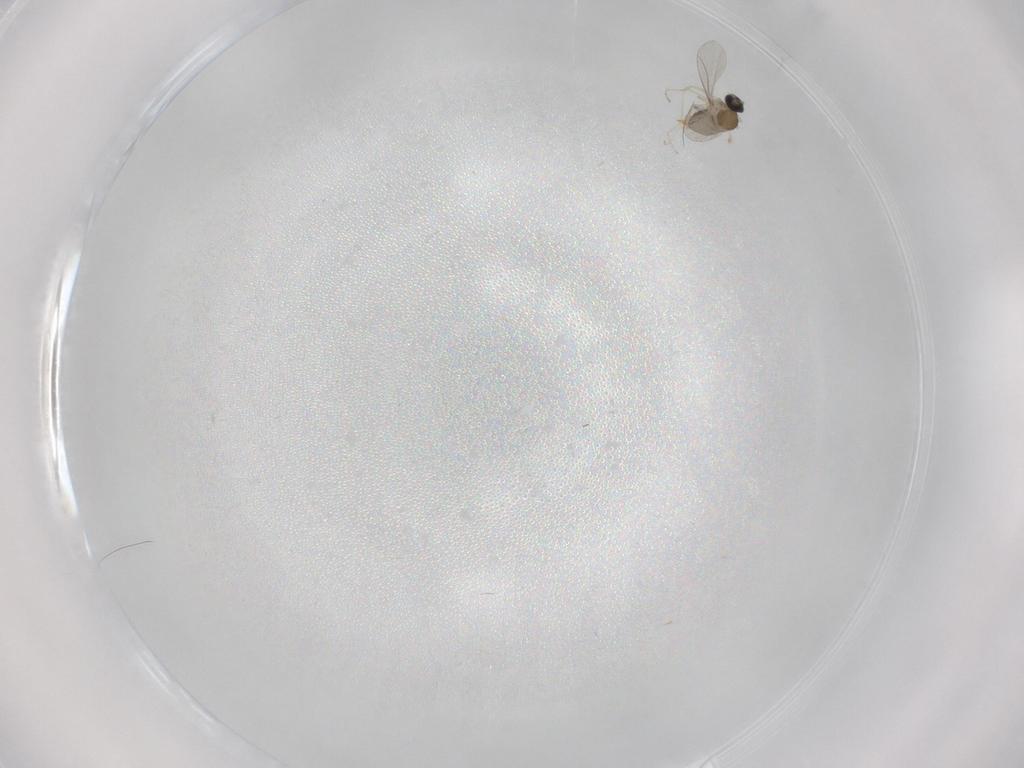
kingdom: Animalia
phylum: Arthropoda
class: Insecta
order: Diptera
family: Cecidomyiidae
